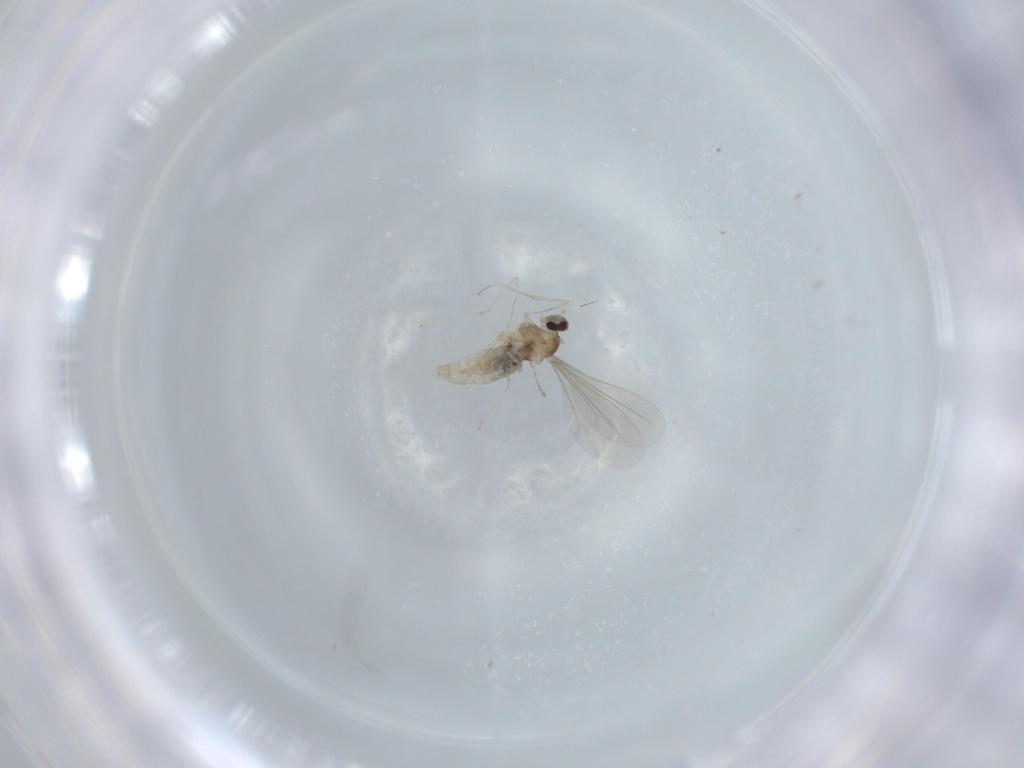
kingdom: Animalia
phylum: Arthropoda
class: Insecta
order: Diptera
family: Cecidomyiidae
